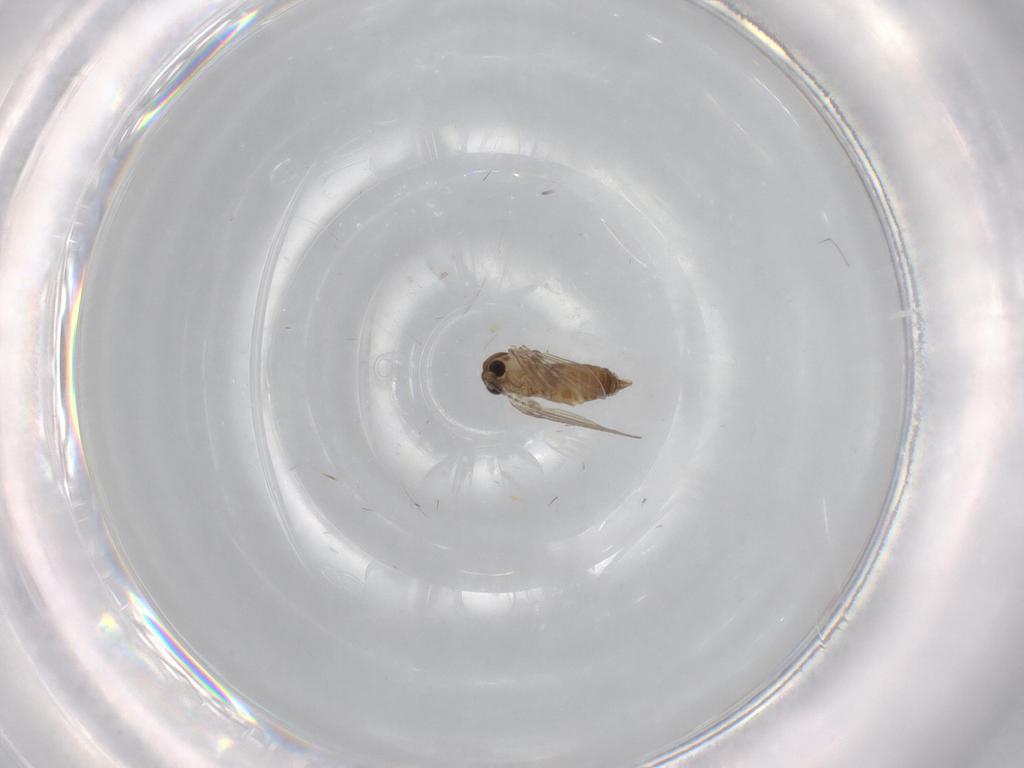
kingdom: Animalia
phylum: Arthropoda
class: Insecta
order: Diptera
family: Psychodidae
